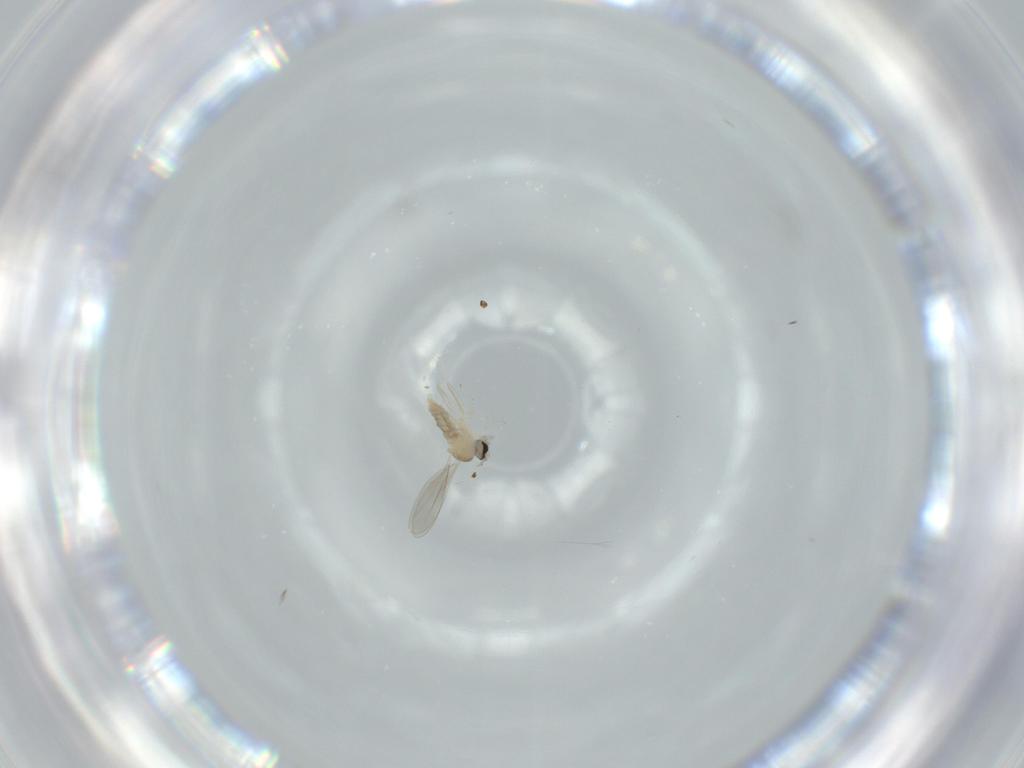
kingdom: Animalia
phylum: Arthropoda
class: Insecta
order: Diptera
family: Cecidomyiidae
